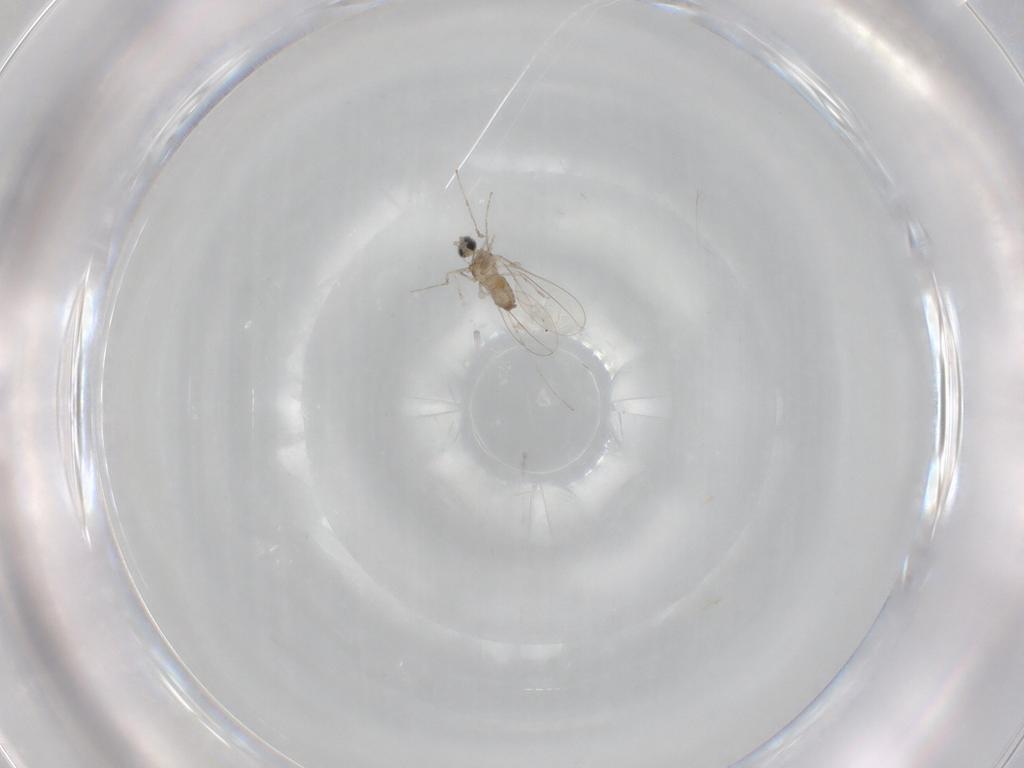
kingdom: Animalia
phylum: Arthropoda
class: Insecta
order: Diptera
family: Cecidomyiidae
